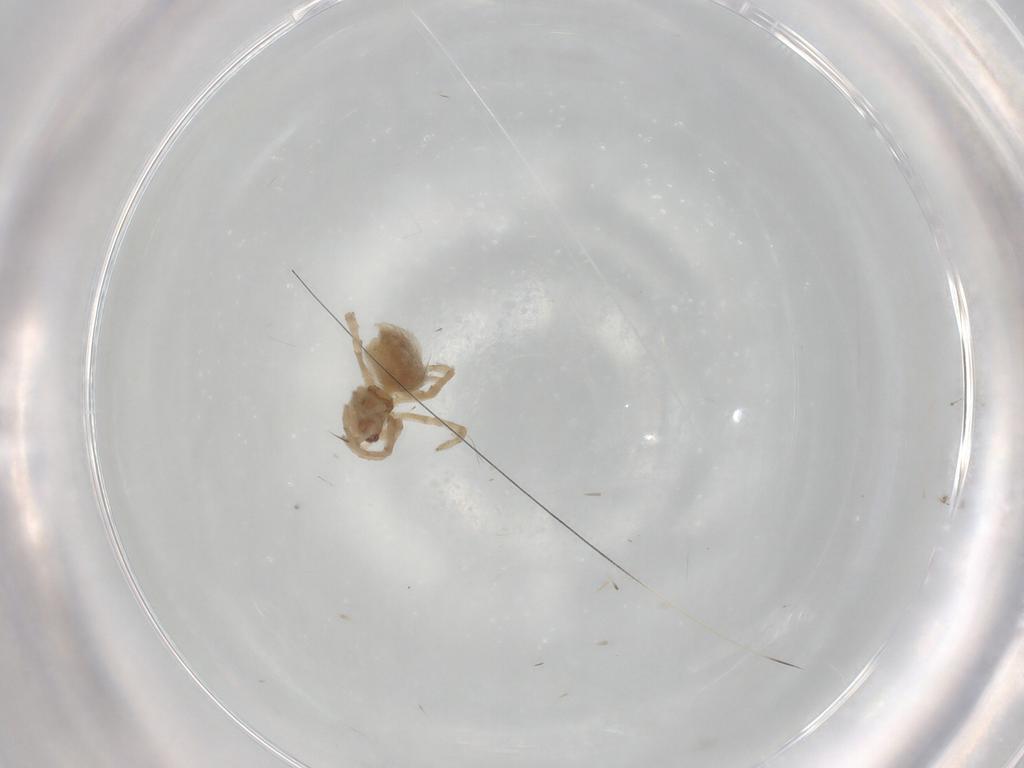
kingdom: Animalia
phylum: Arthropoda
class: Arachnida
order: Araneae
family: Dictynidae
